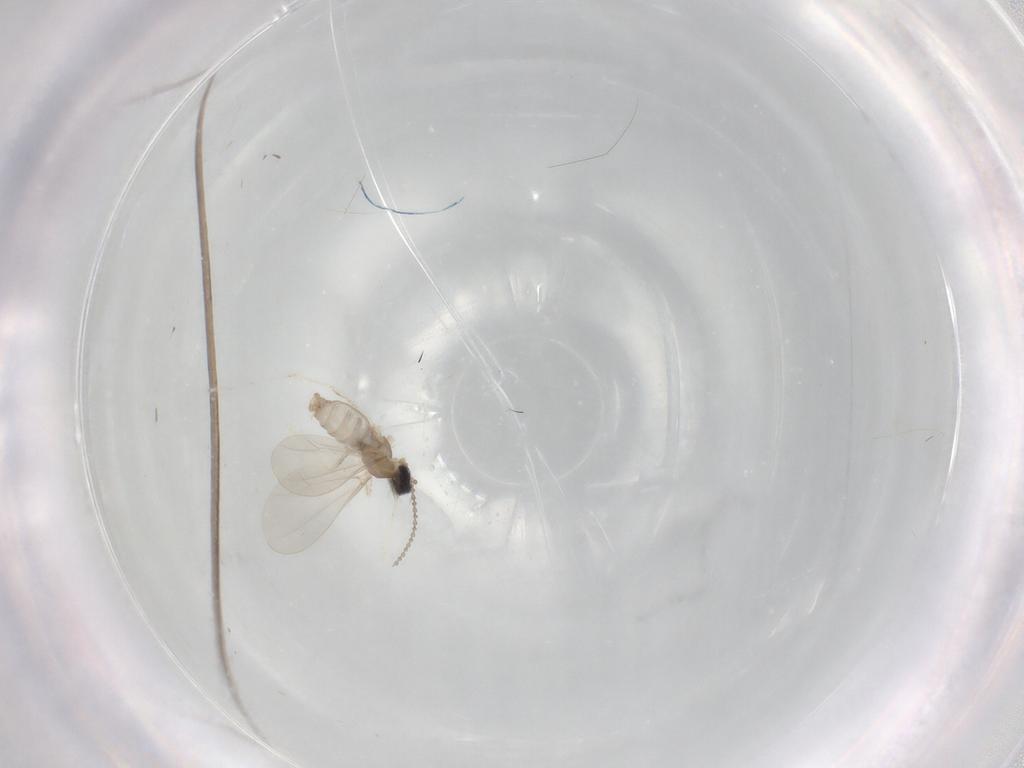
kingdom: Animalia
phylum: Arthropoda
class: Insecta
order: Diptera
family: Cecidomyiidae
